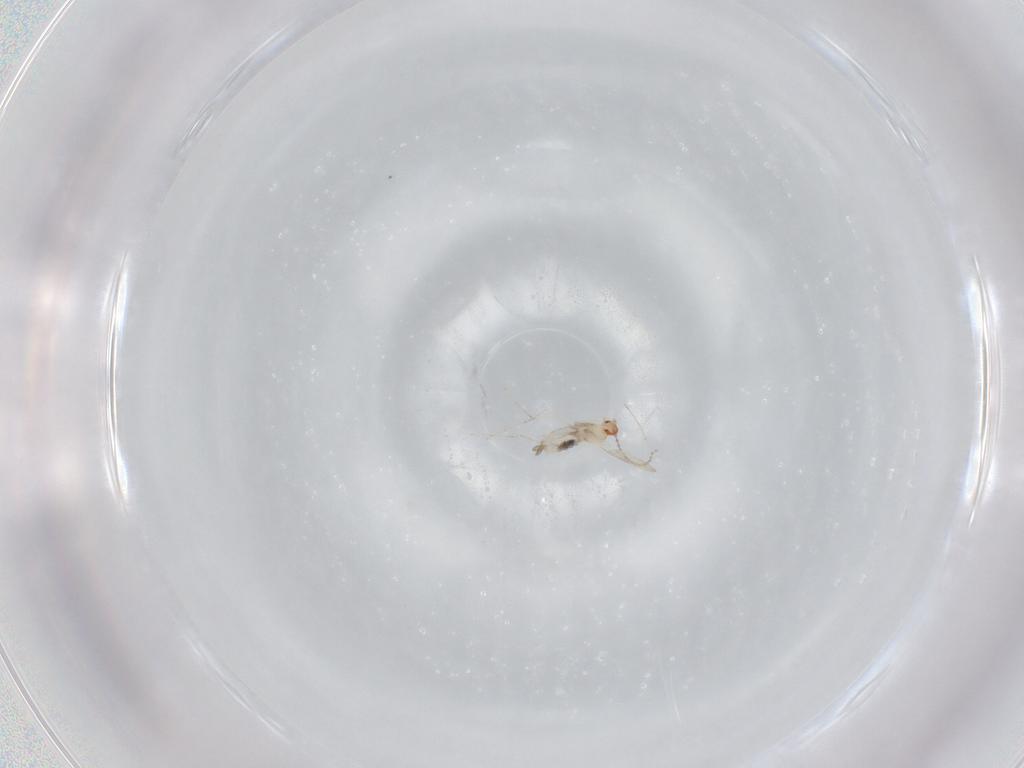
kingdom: Animalia
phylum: Arthropoda
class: Insecta
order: Diptera
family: Cecidomyiidae
